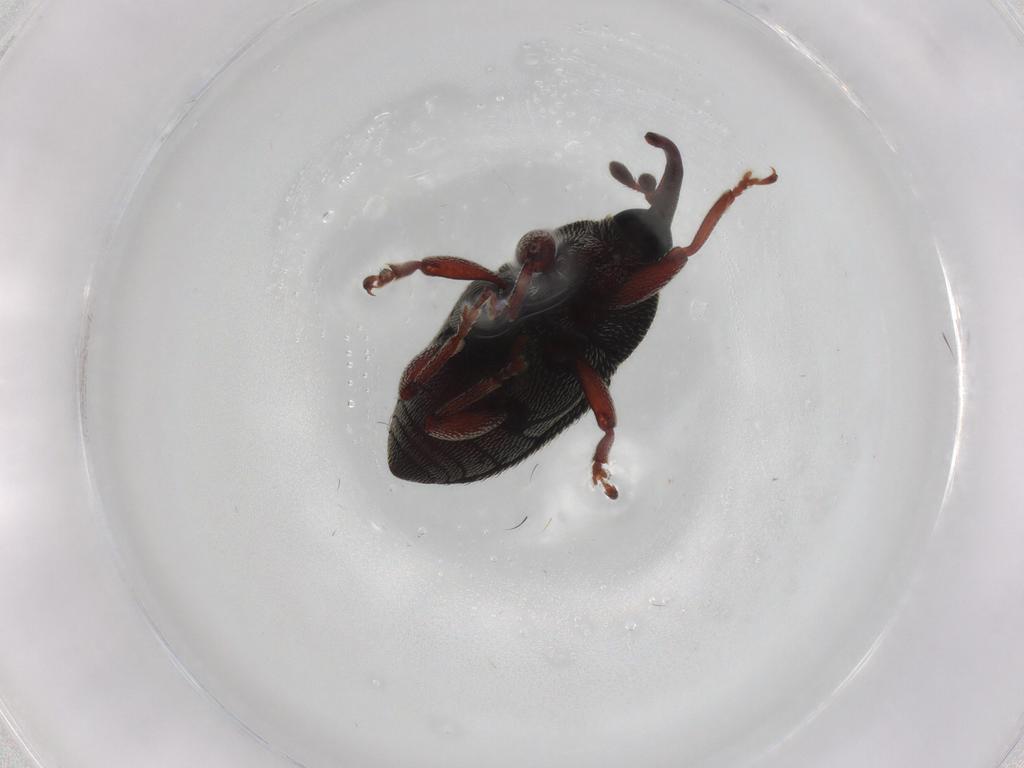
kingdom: Animalia
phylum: Arthropoda
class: Insecta
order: Coleoptera
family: Curculionidae
